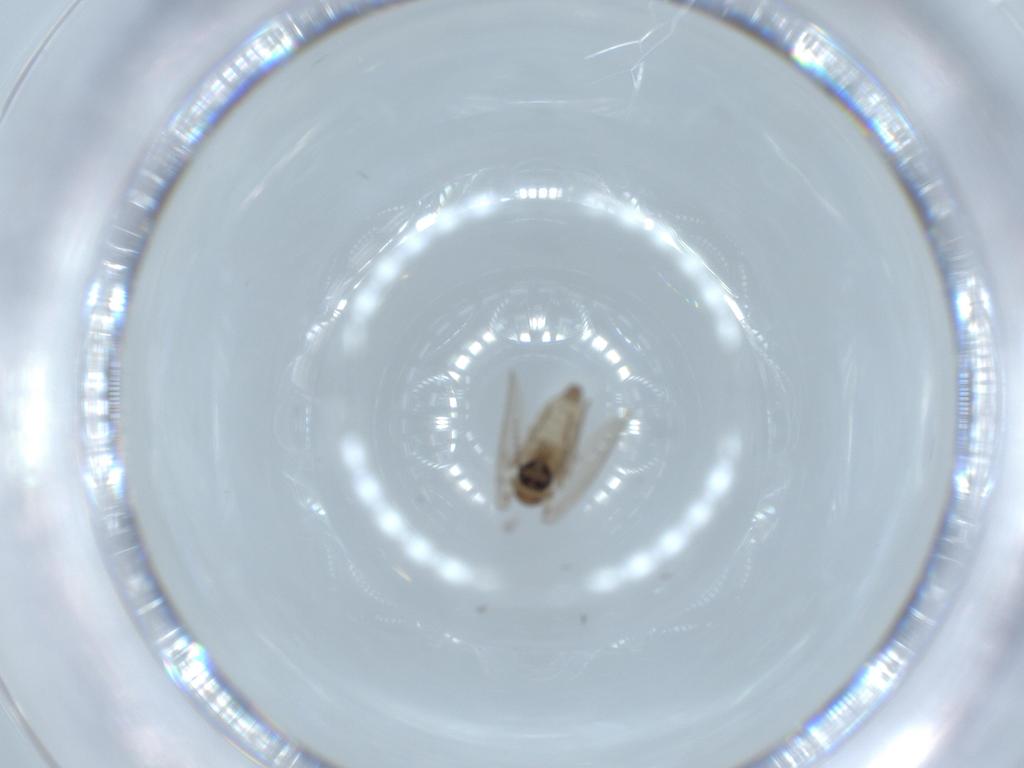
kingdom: Animalia
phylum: Arthropoda
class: Insecta
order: Diptera
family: Psychodidae
